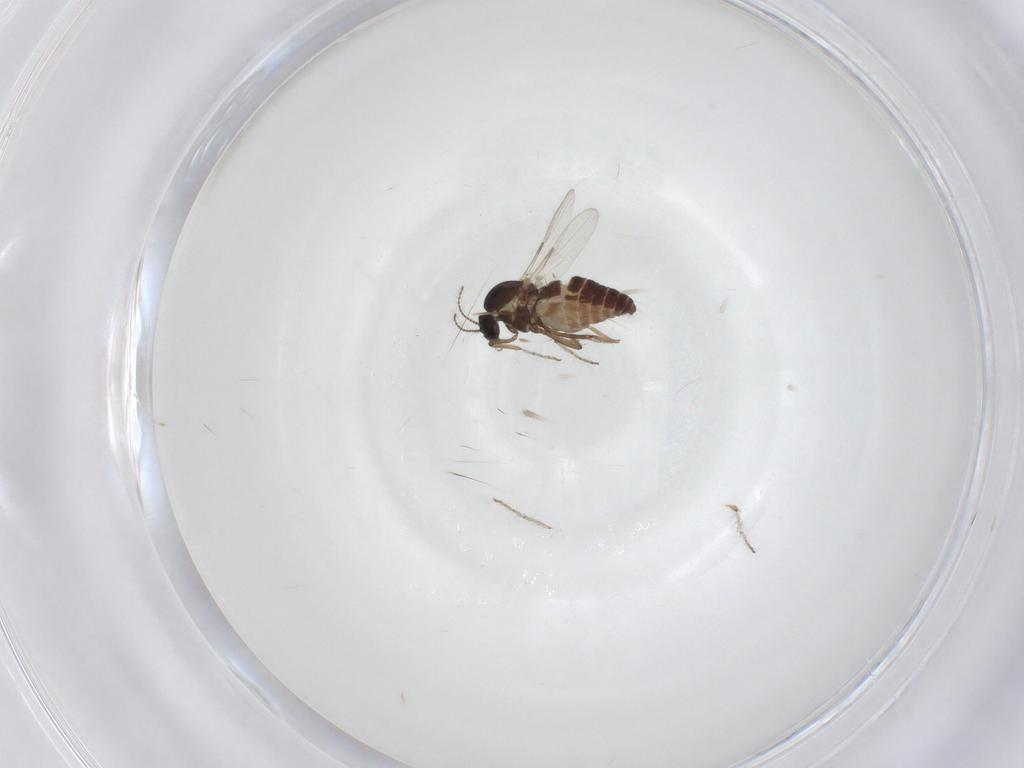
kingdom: Animalia
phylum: Arthropoda
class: Insecta
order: Diptera
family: Ceratopogonidae
